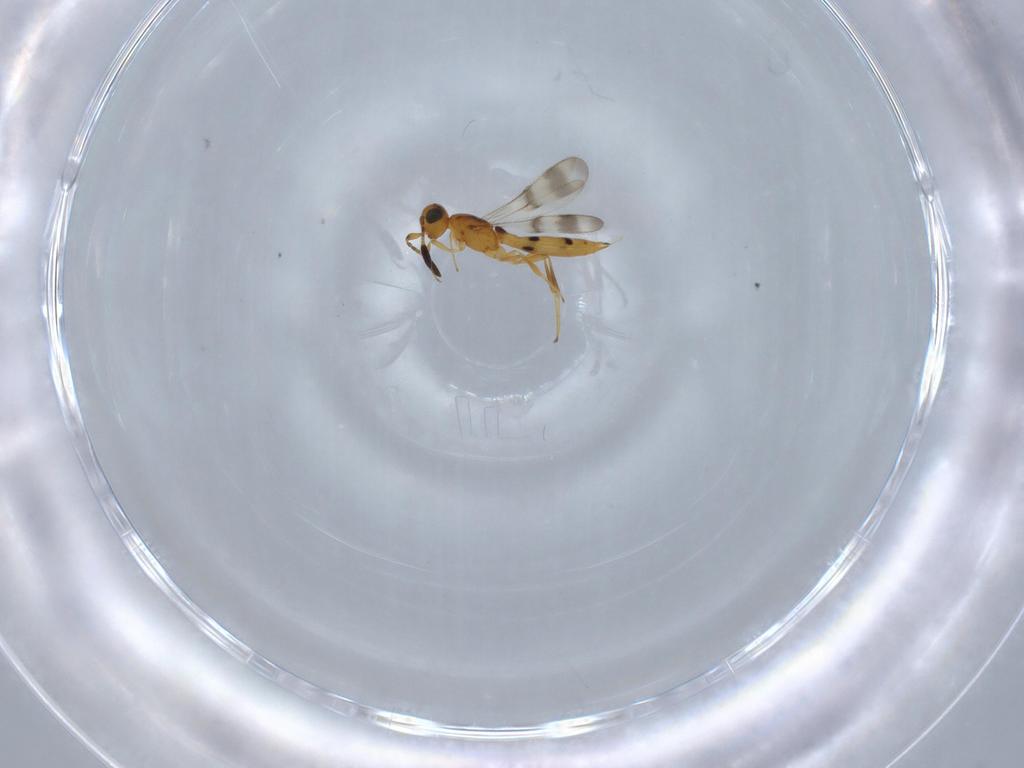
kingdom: Animalia
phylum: Arthropoda
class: Insecta
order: Hymenoptera
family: Scelionidae
